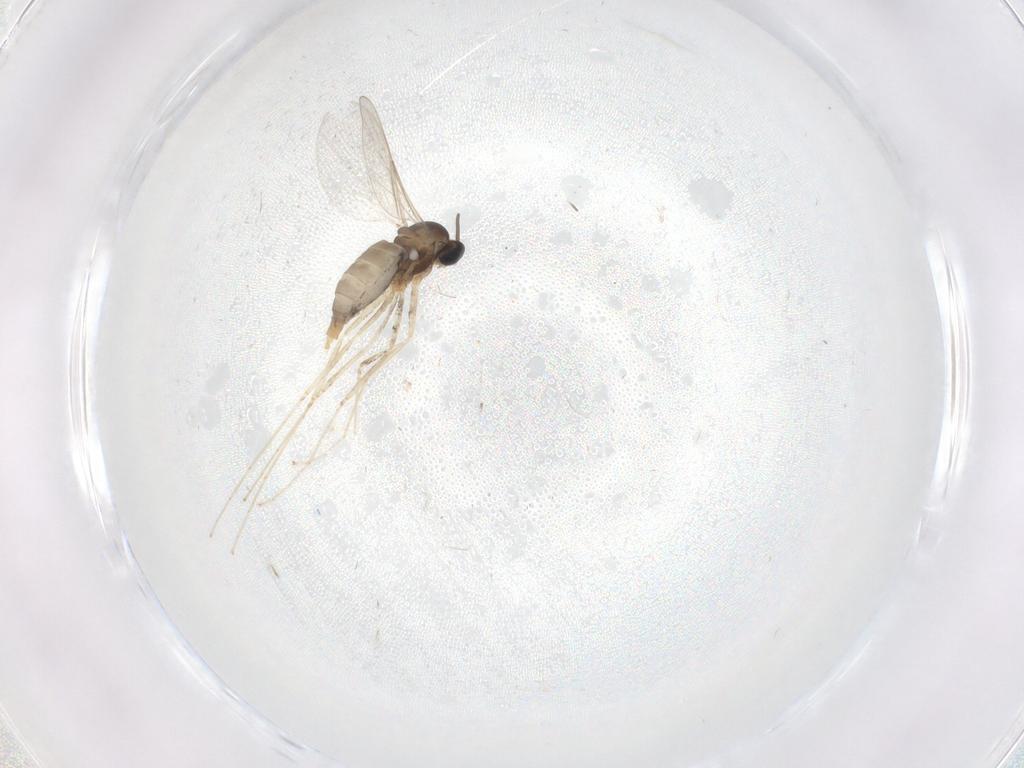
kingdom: Animalia
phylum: Arthropoda
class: Insecta
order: Diptera
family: Cecidomyiidae
